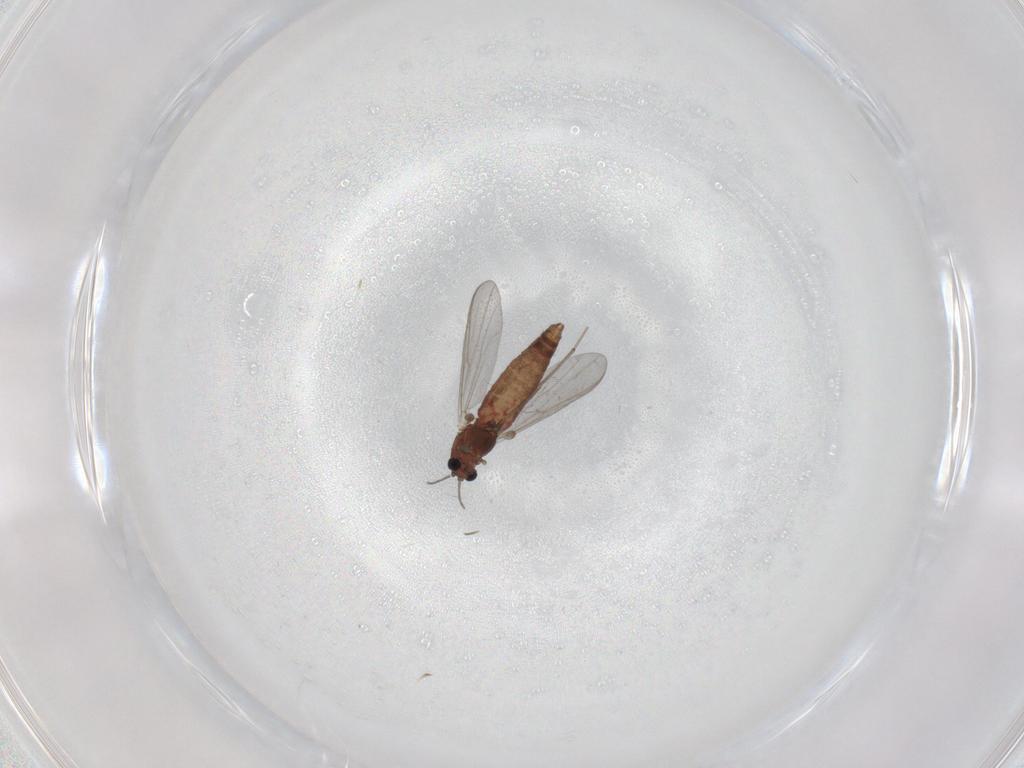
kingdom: Animalia
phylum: Arthropoda
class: Insecta
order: Diptera
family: Chironomidae
